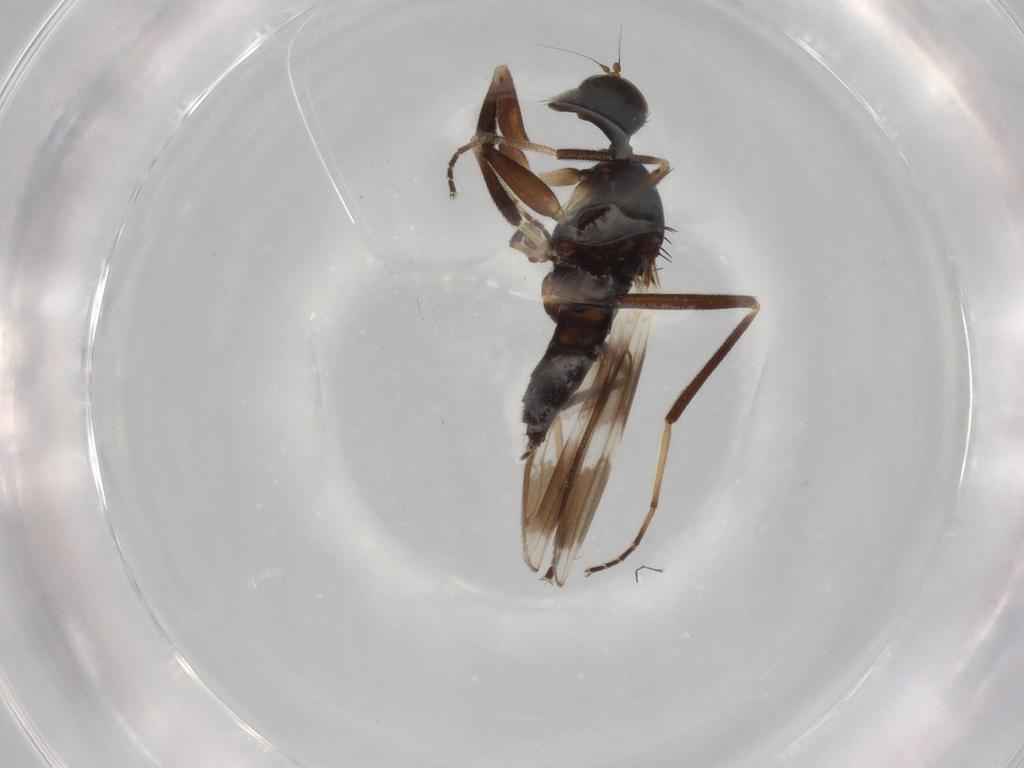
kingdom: Animalia
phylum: Arthropoda
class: Insecta
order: Diptera
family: Hybotidae
